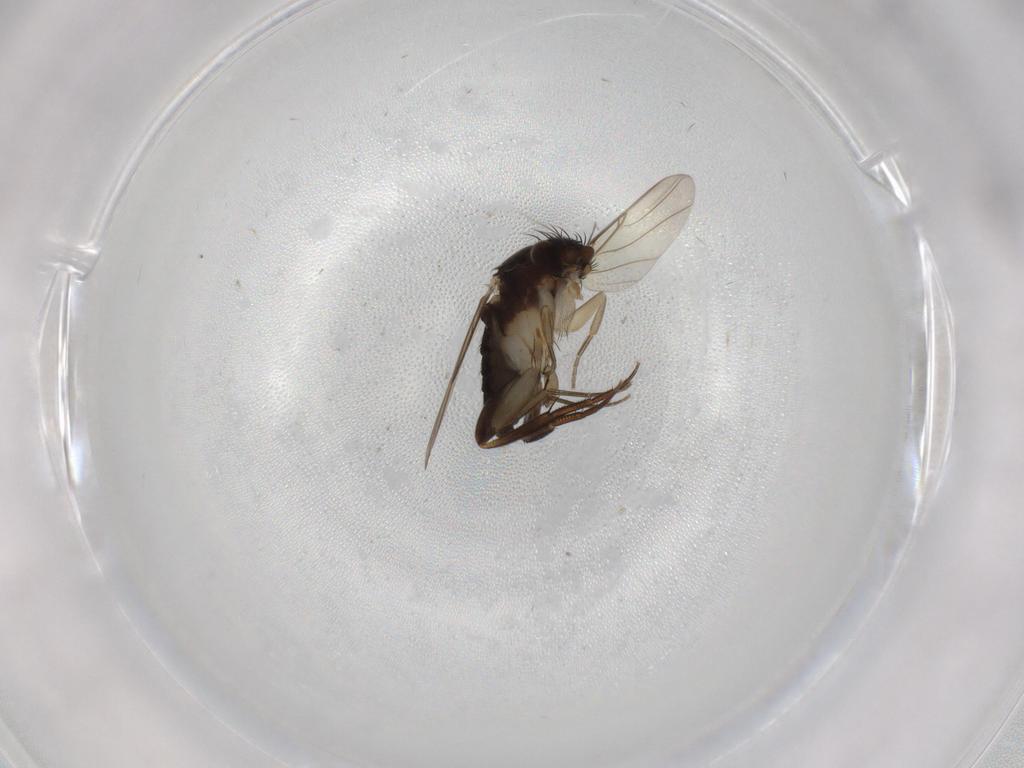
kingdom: Animalia
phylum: Arthropoda
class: Insecta
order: Diptera
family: Phoridae
